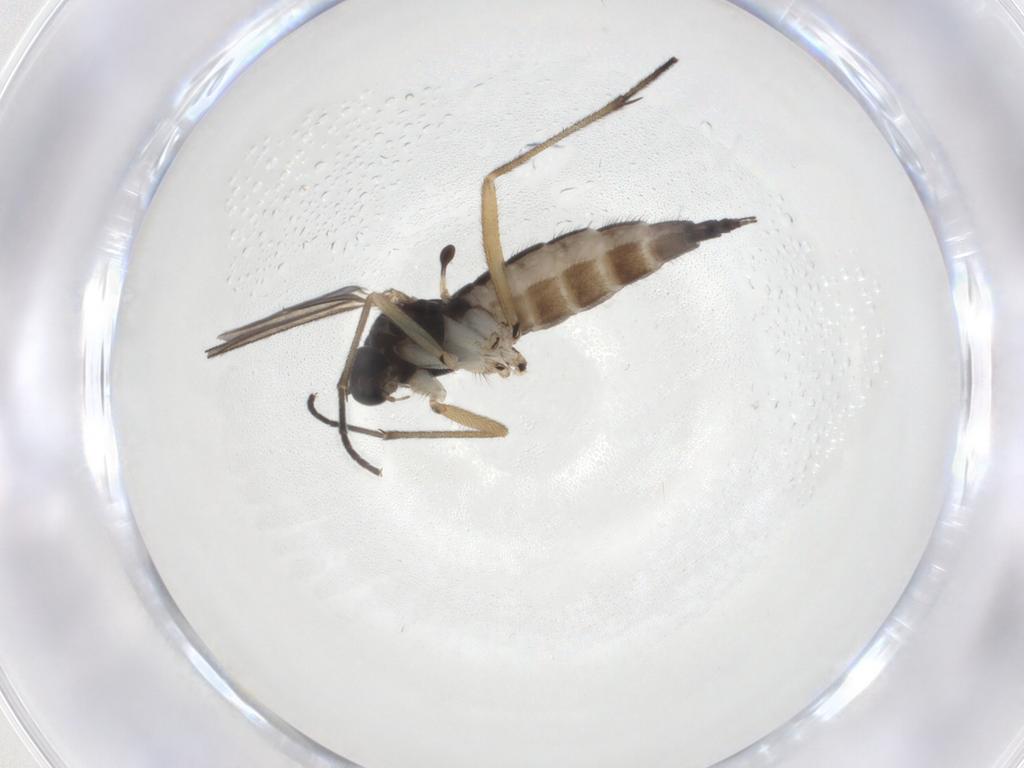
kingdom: Animalia
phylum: Arthropoda
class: Insecta
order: Diptera
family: Sciaridae
